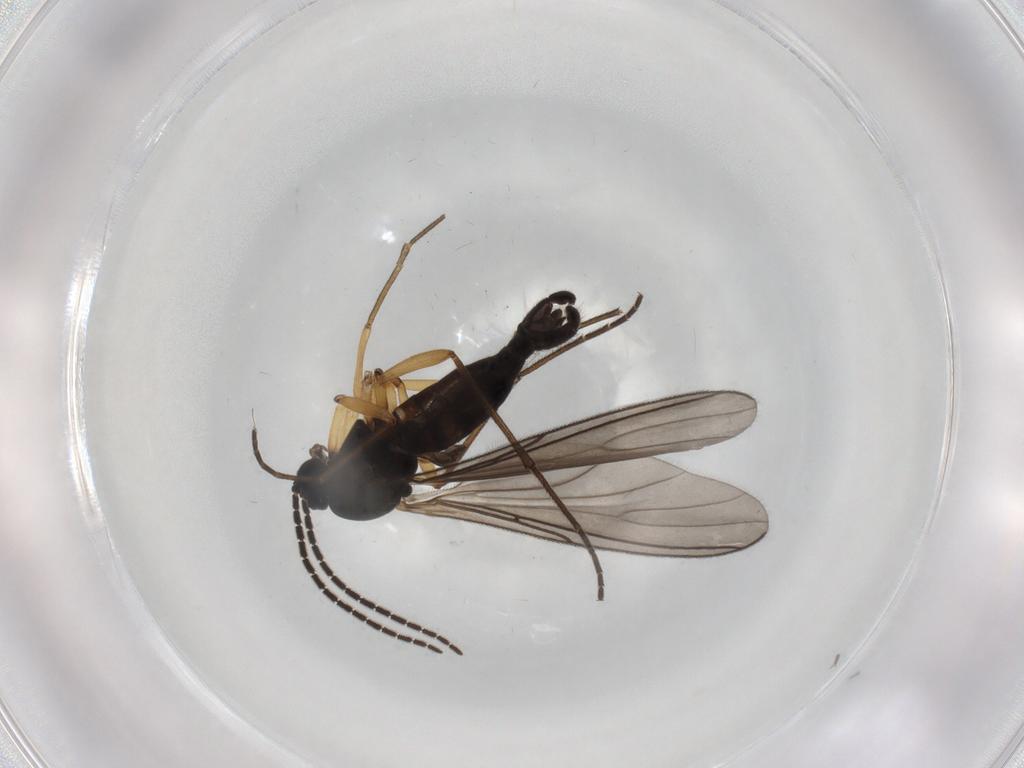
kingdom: Animalia
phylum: Arthropoda
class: Insecta
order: Diptera
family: Sciaridae
